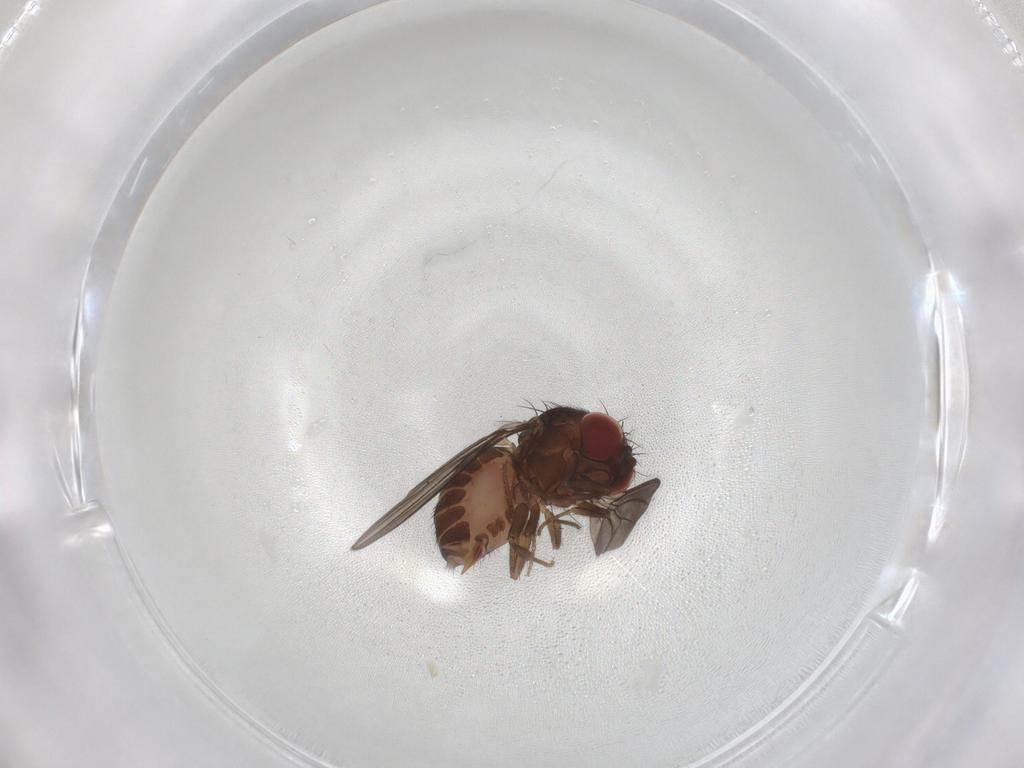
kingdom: Animalia
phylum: Arthropoda
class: Insecta
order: Diptera
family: Drosophilidae
